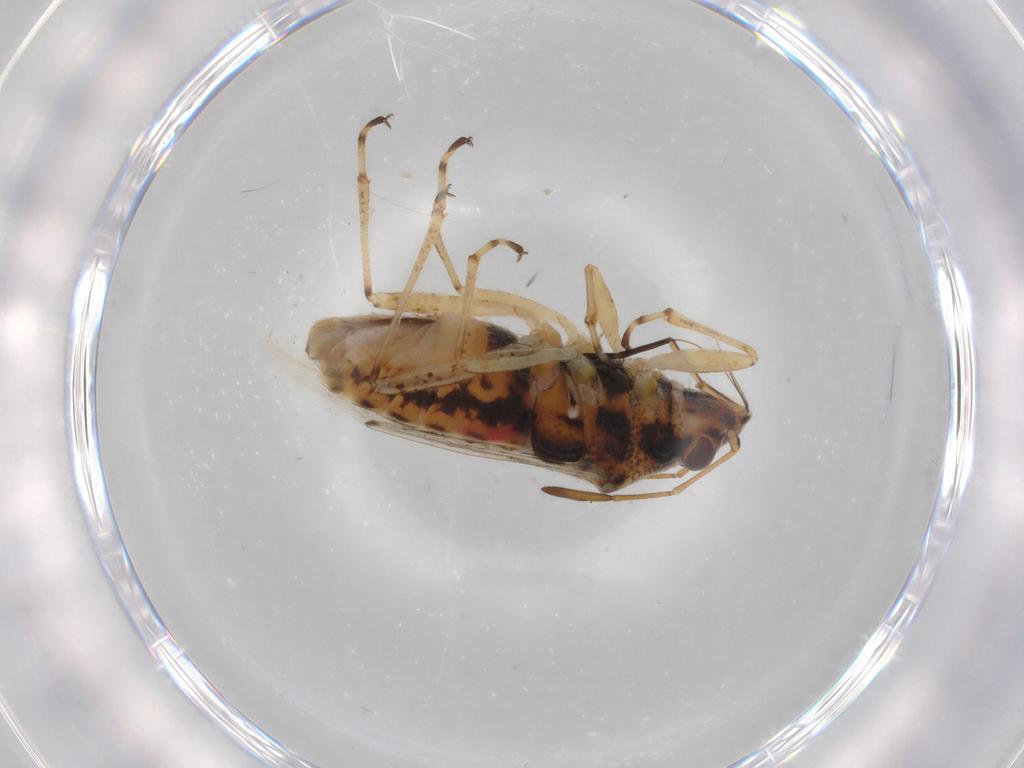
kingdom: Animalia
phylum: Arthropoda
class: Insecta
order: Hemiptera
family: Lygaeidae
